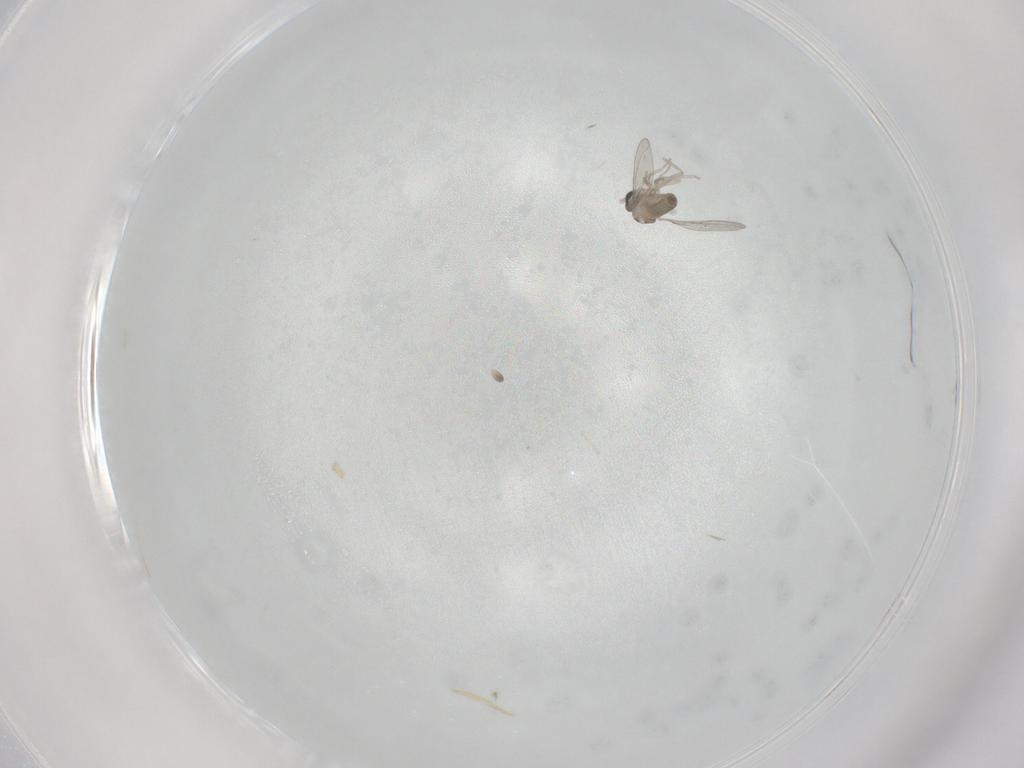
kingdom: Animalia
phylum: Arthropoda
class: Insecta
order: Diptera
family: Cecidomyiidae
